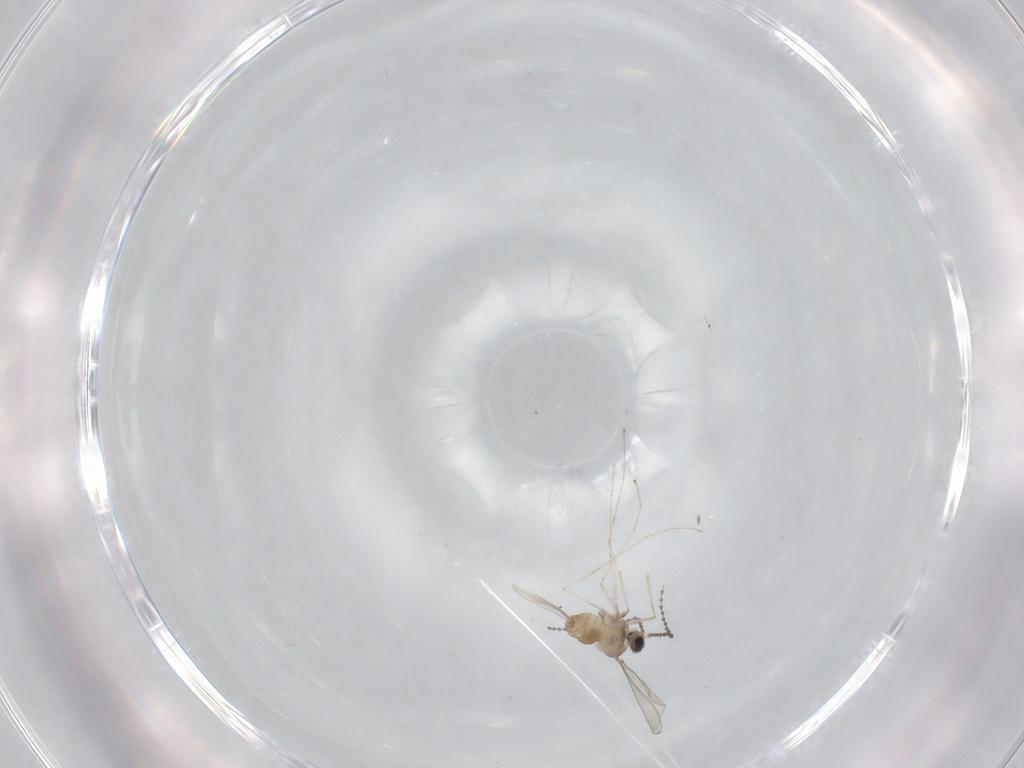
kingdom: Animalia
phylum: Arthropoda
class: Insecta
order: Diptera
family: Cecidomyiidae
